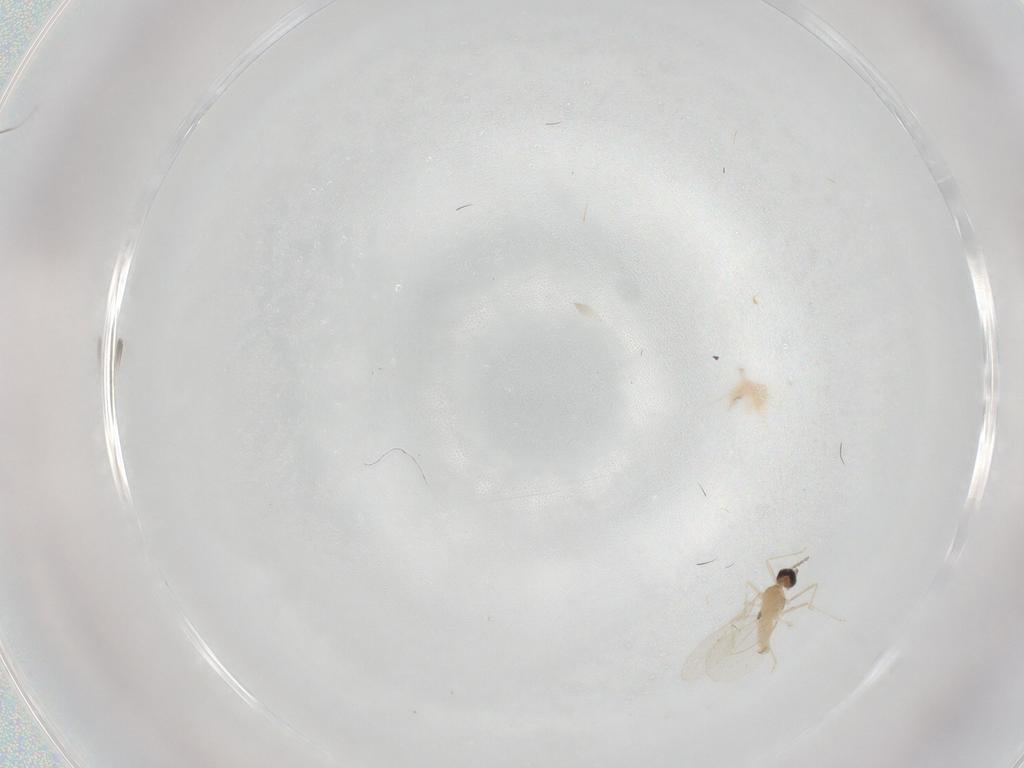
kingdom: Animalia
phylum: Arthropoda
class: Insecta
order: Diptera
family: Cecidomyiidae
